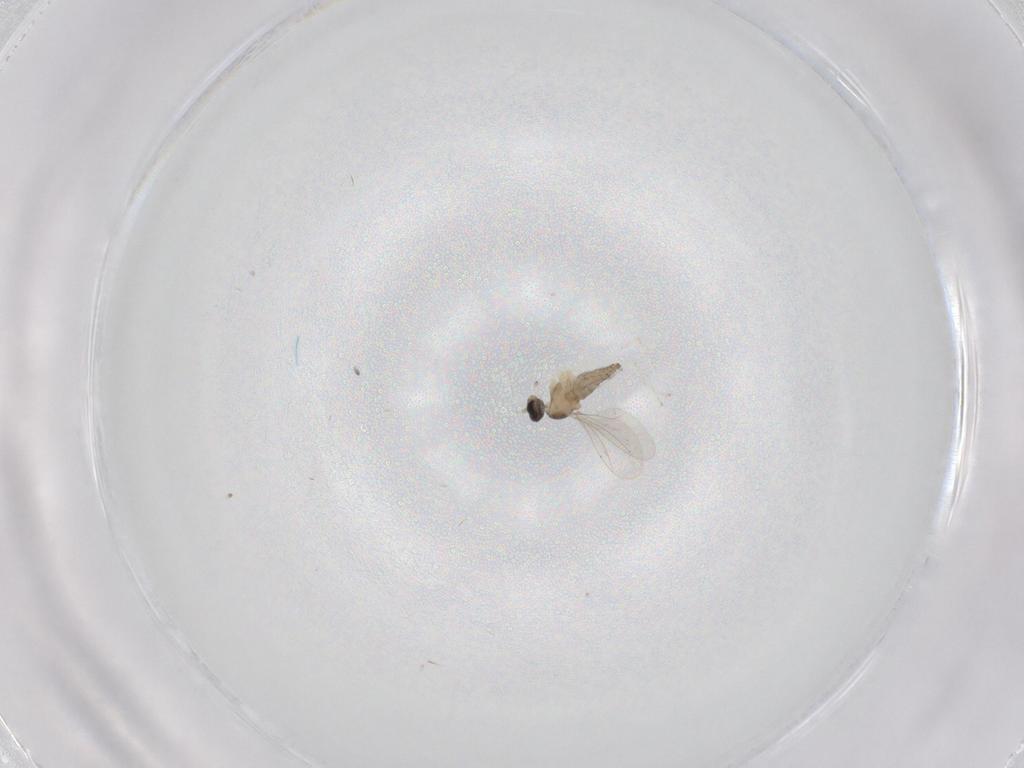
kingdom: Animalia
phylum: Arthropoda
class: Insecta
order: Diptera
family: Cecidomyiidae
